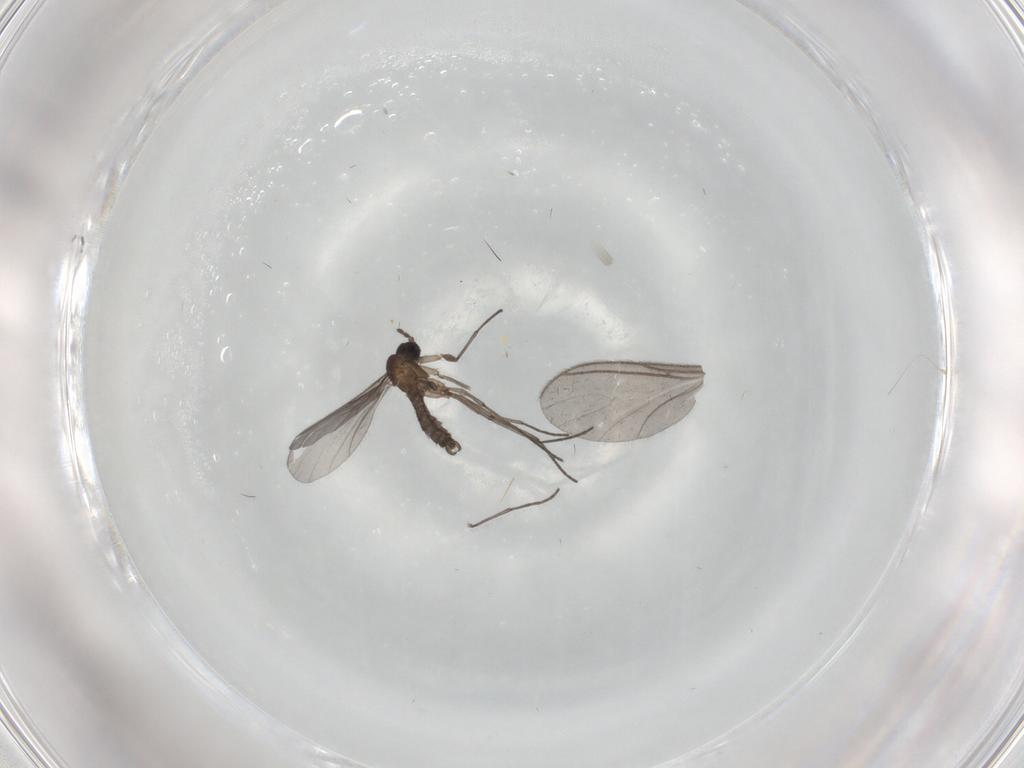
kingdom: Animalia
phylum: Arthropoda
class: Insecta
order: Diptera
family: Sciaridae
